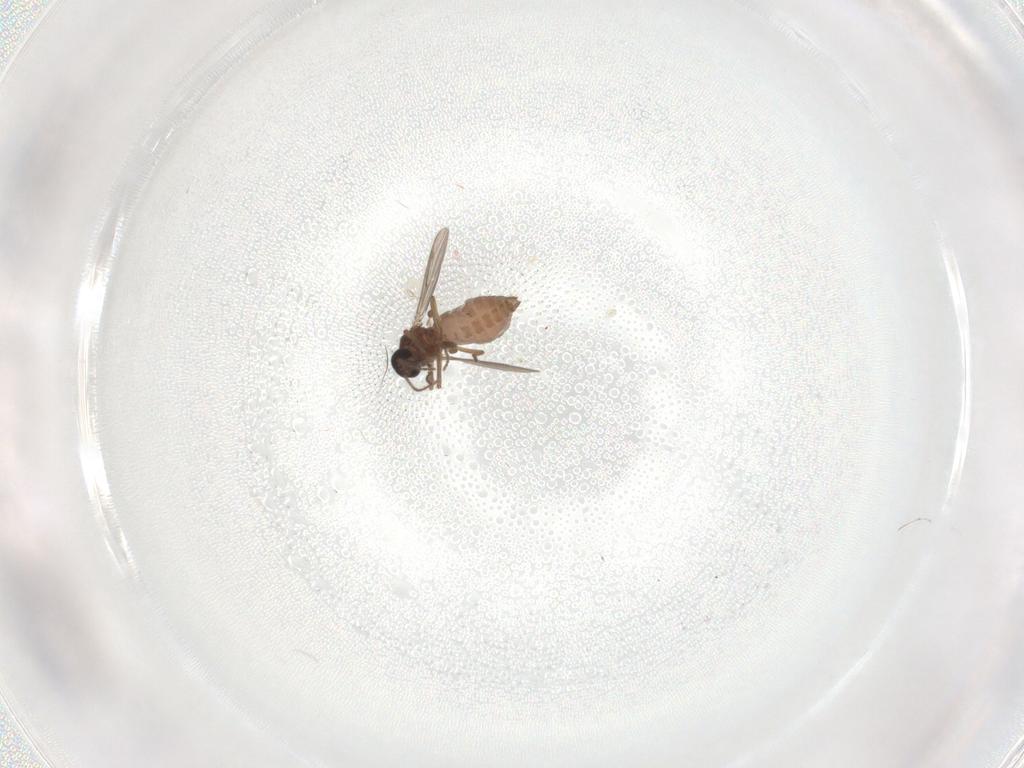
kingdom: Animalia
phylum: Arthropoda
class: Insecta
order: Diptera
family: Ceratopogonidae
